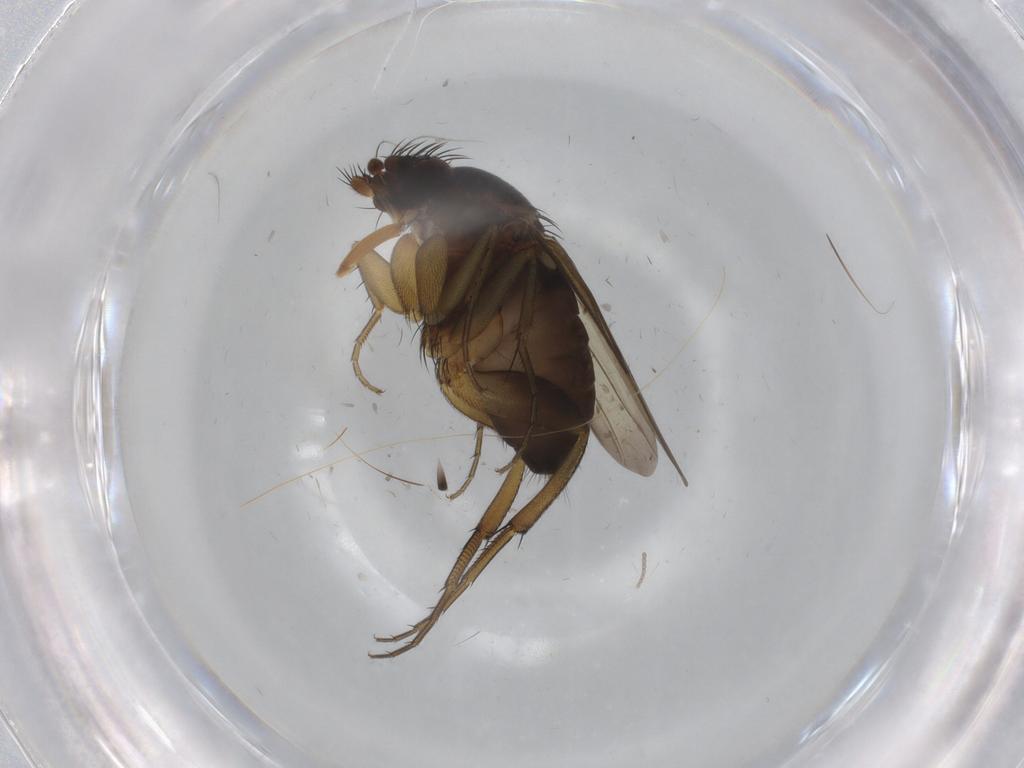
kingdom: Animalia
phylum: Arthropoda
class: Insecta
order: Diptera
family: Phoridae
